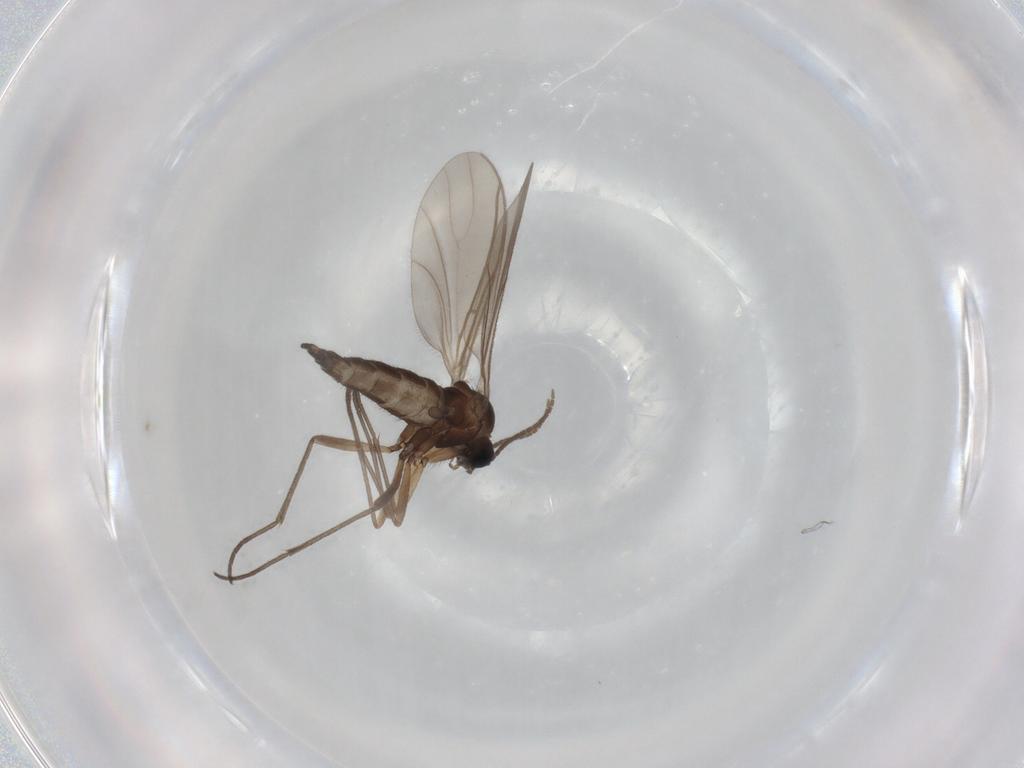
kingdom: Animalia
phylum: Arthropoda
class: Insecta
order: Diptera
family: Sciaridae
